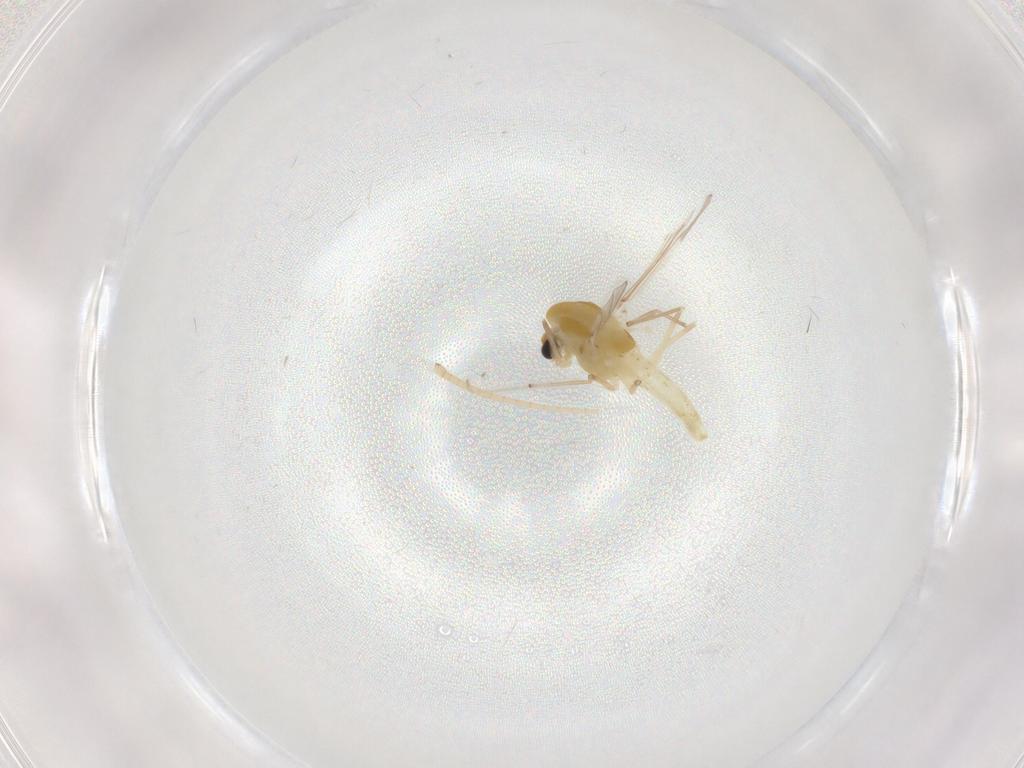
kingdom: Animalia
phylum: Arthropoda
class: Insecta
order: Diptera
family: Chironomidae
